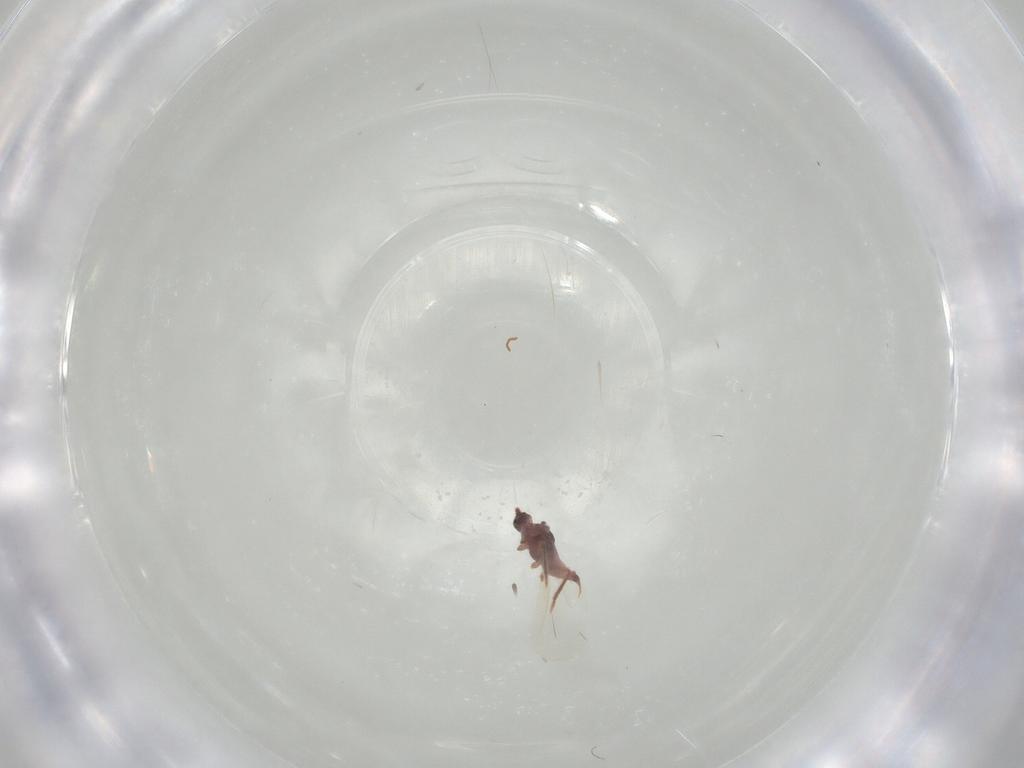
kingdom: Animalia
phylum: Arthropoda
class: Insecta
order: Hemiptera
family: Coccoidea_incertae_sedis
